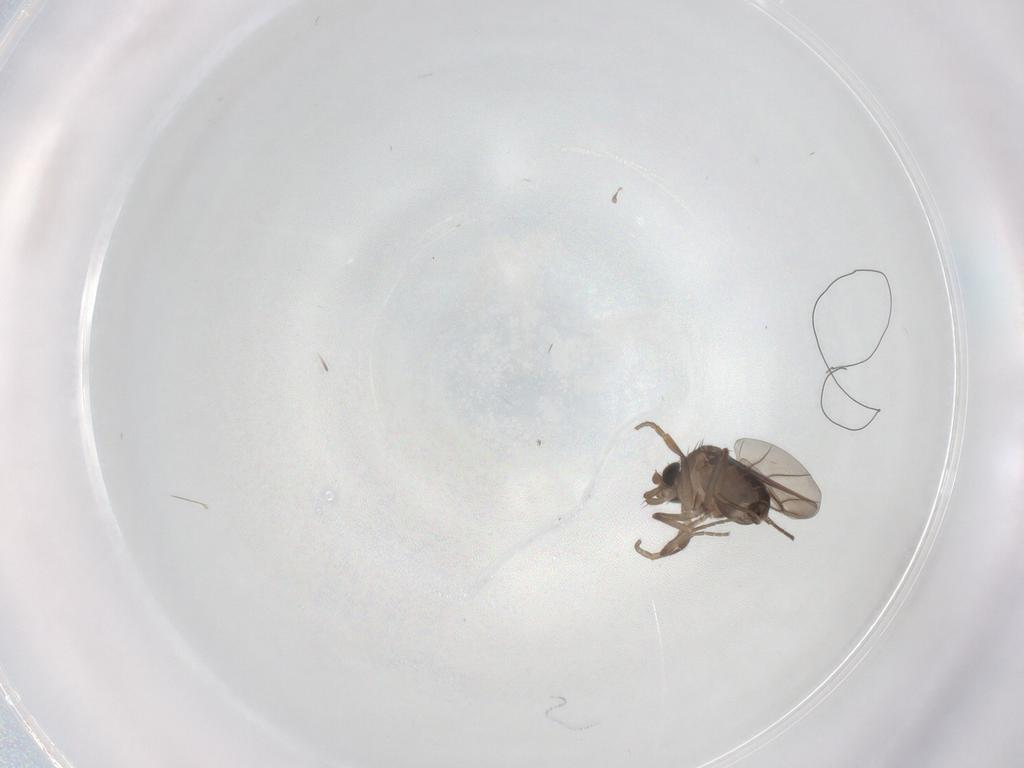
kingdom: Animalia
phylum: Arthropoda
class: Insecta
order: Diptera
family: Phoridae
